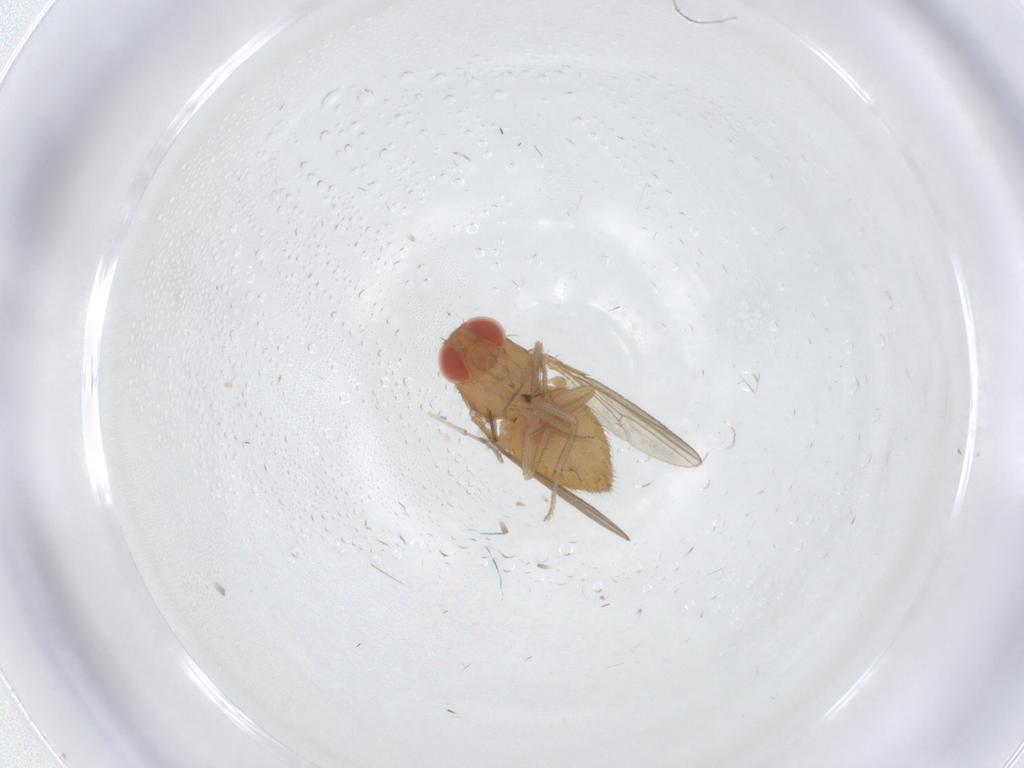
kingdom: Animalia
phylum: Arthropoda
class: Insecta
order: Diptera
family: Drosophilidae
